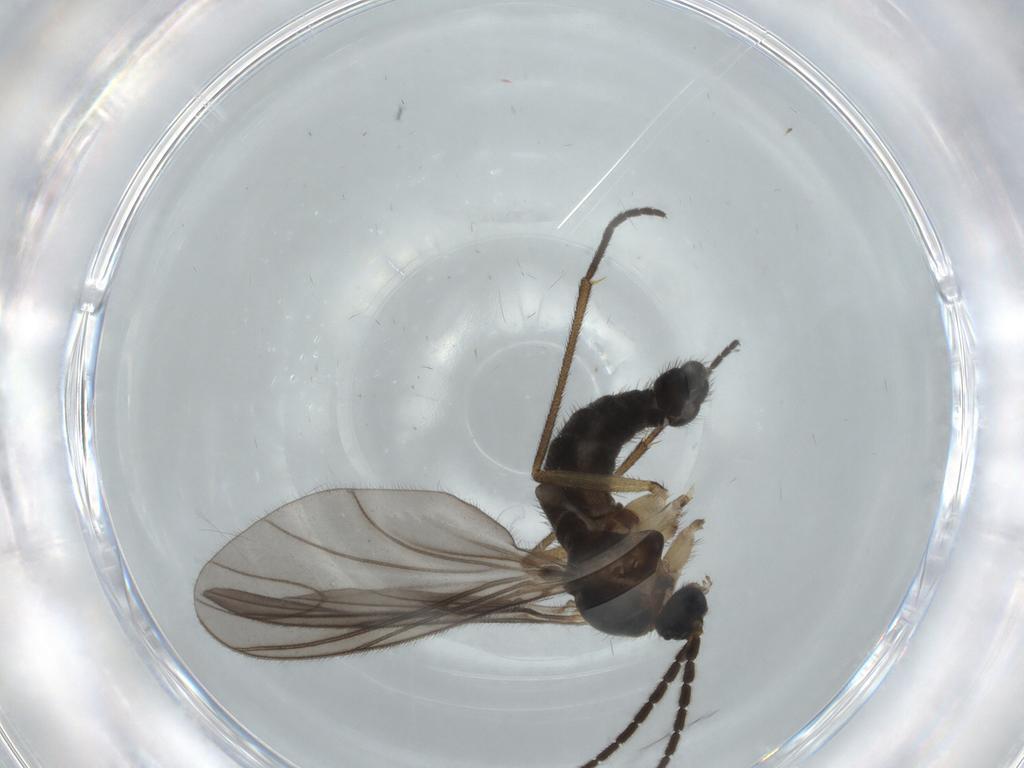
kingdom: Animalia
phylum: Arthropoda
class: Insecta
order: Diptera
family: Sciaridae
